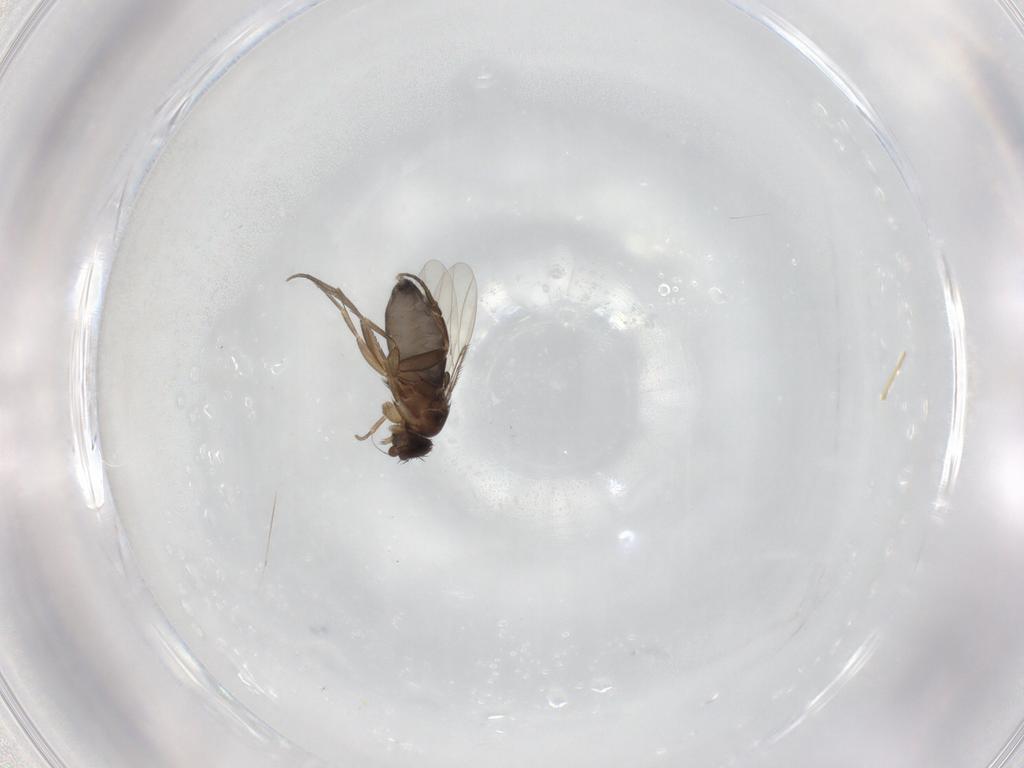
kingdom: Animalia
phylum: Arthropoda
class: Insecta
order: Diptera
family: Phoridae
